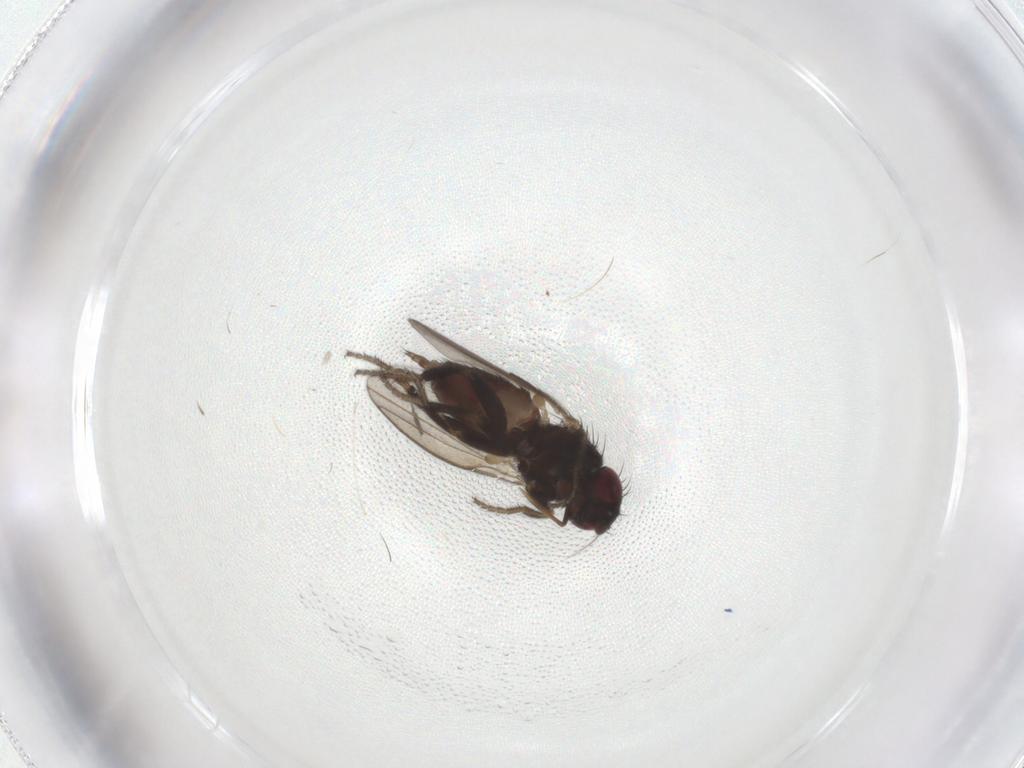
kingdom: Animalia
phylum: Arthropoda
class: Insecta
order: Diptera
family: Milichiidae
